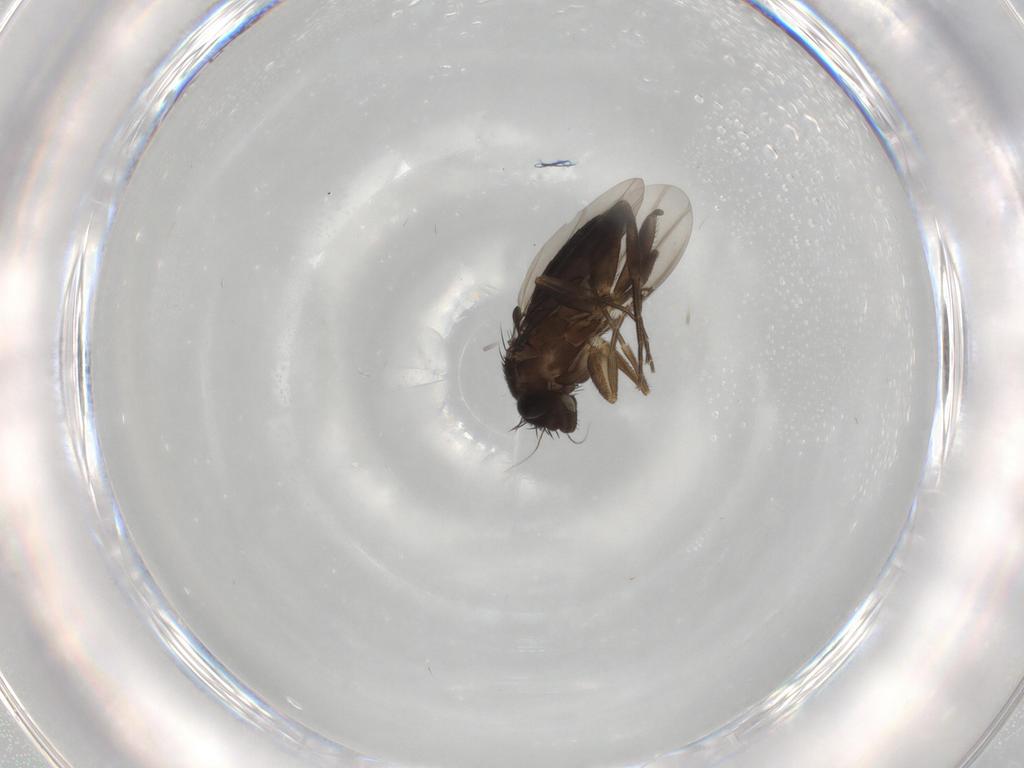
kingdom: Animalia
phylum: Arthropoda
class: Insecta
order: Diptera
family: Phoridae
